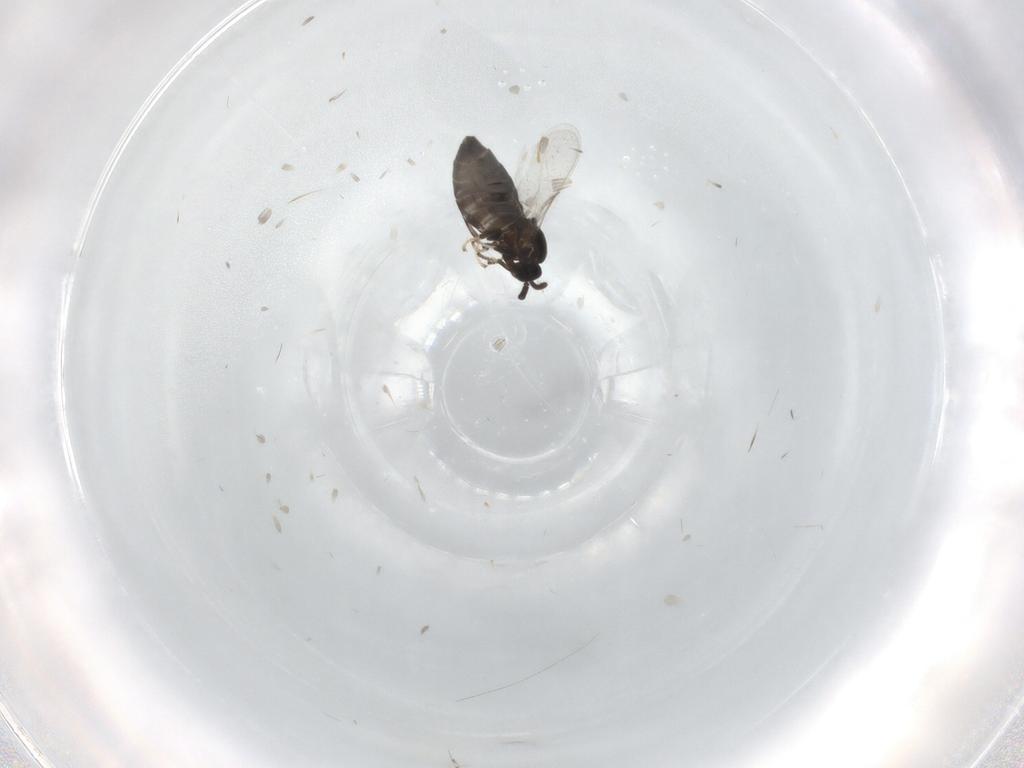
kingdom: Animalia
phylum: Arthropoda
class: Insecta
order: Diptera
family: Scatopsidae
